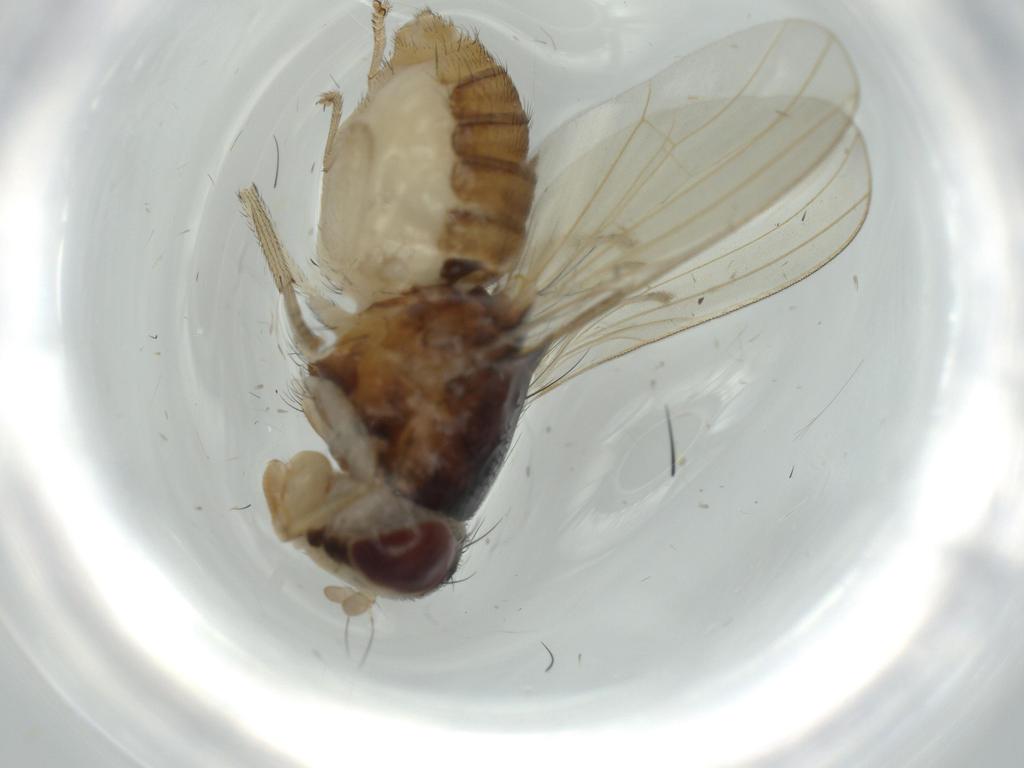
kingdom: Animalia
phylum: Arthropoda
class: Insecta
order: Diptera
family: Lauxaniidae
